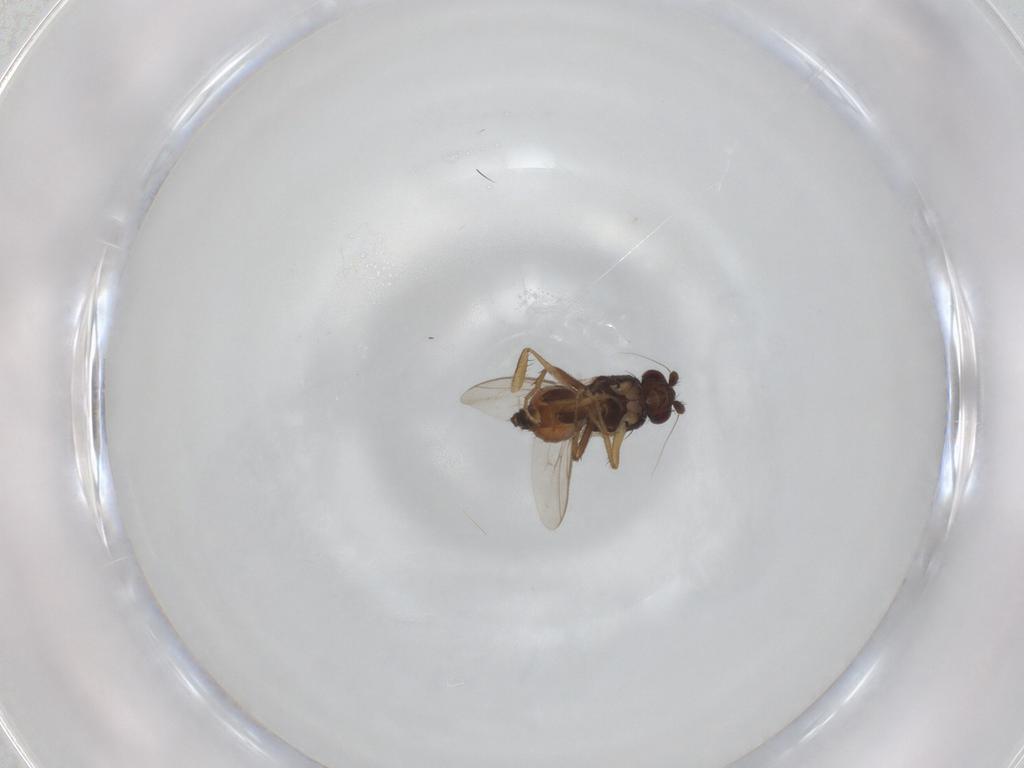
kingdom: Animalia
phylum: Arthropoda
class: Insecta
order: Diptera
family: Sphaeroceridae
